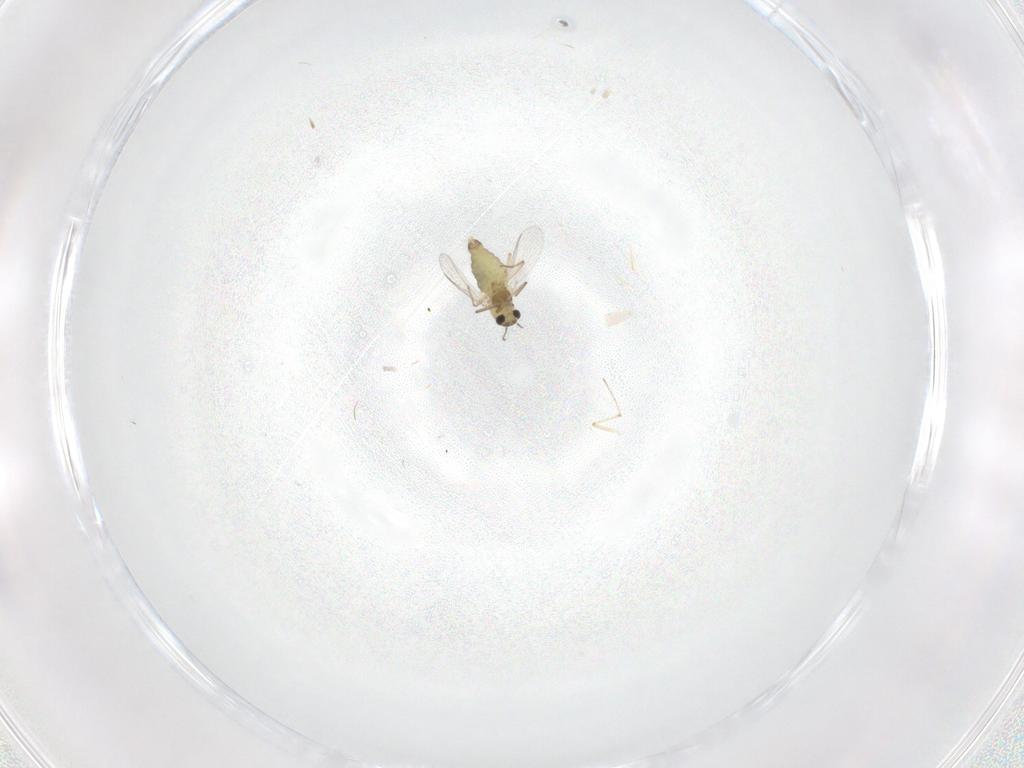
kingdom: Animalia
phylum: Arthropoda
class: Insecta
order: Diptera
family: Chironomidae
